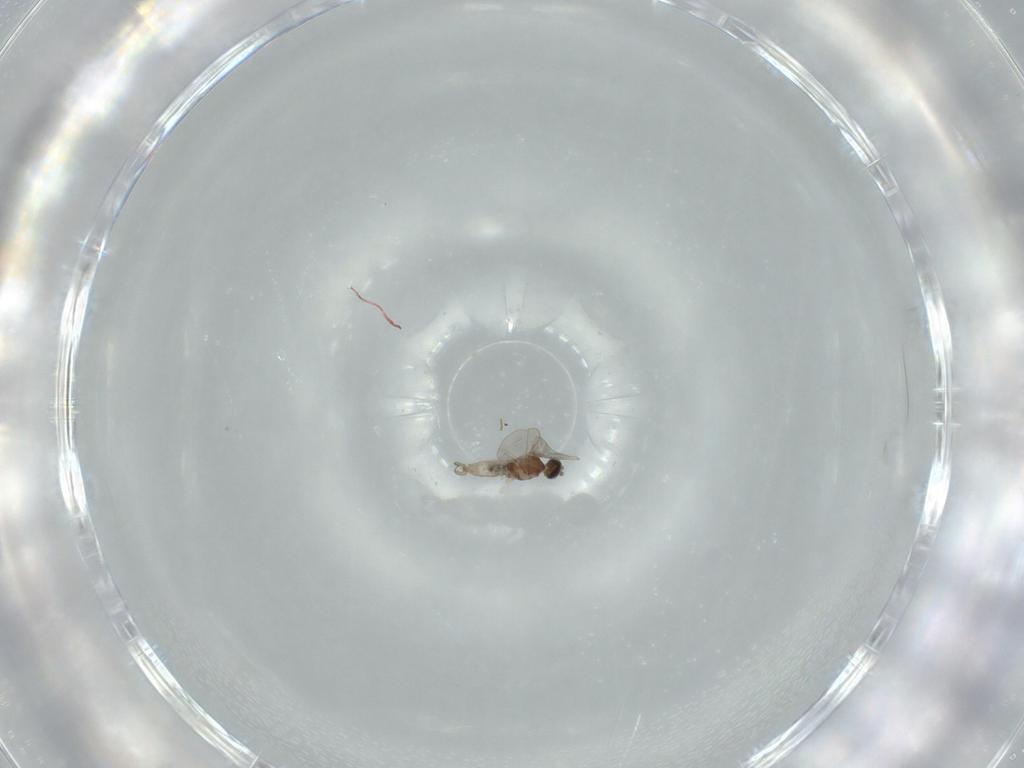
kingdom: Animalia
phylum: Arthropoda
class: Insecta
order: Diptera
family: Cecidomyiidae
